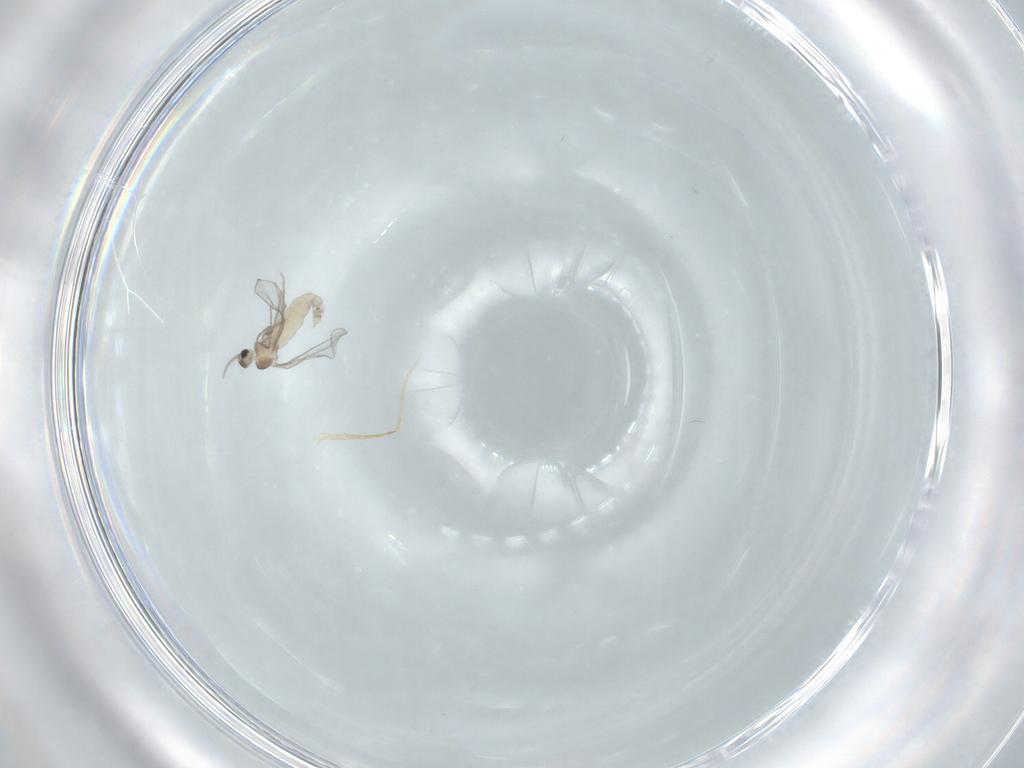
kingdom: Animalia
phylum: Arthropoda
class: Insecta
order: Diptera
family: Cecidomyiidae
